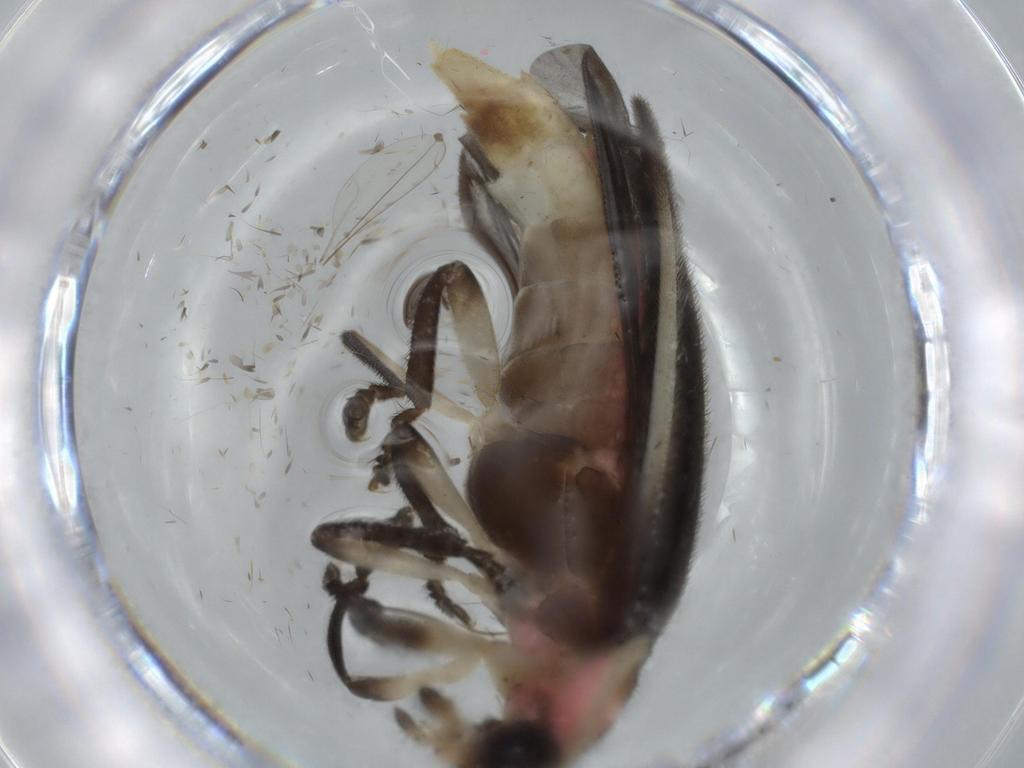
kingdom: Animalia
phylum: Arthropoda
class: Insecta
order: Coleoptera
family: Lampyridae
